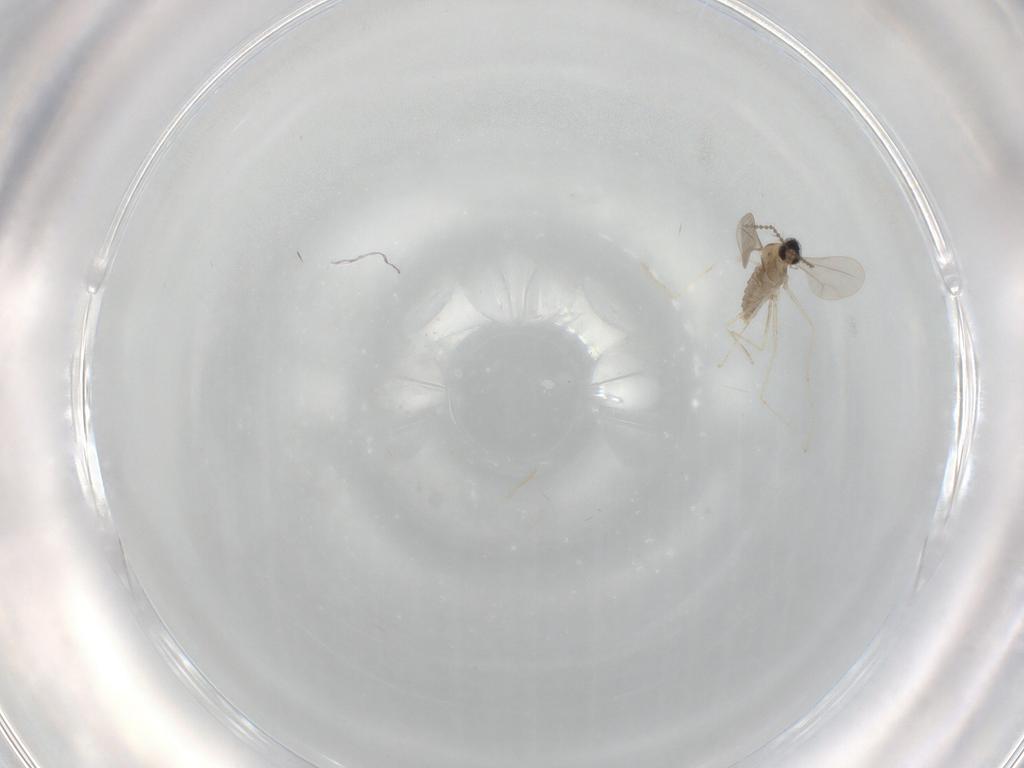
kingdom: Animalia
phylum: Arthropoda
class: Insecta
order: Diptera
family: Cecidomyiidae
